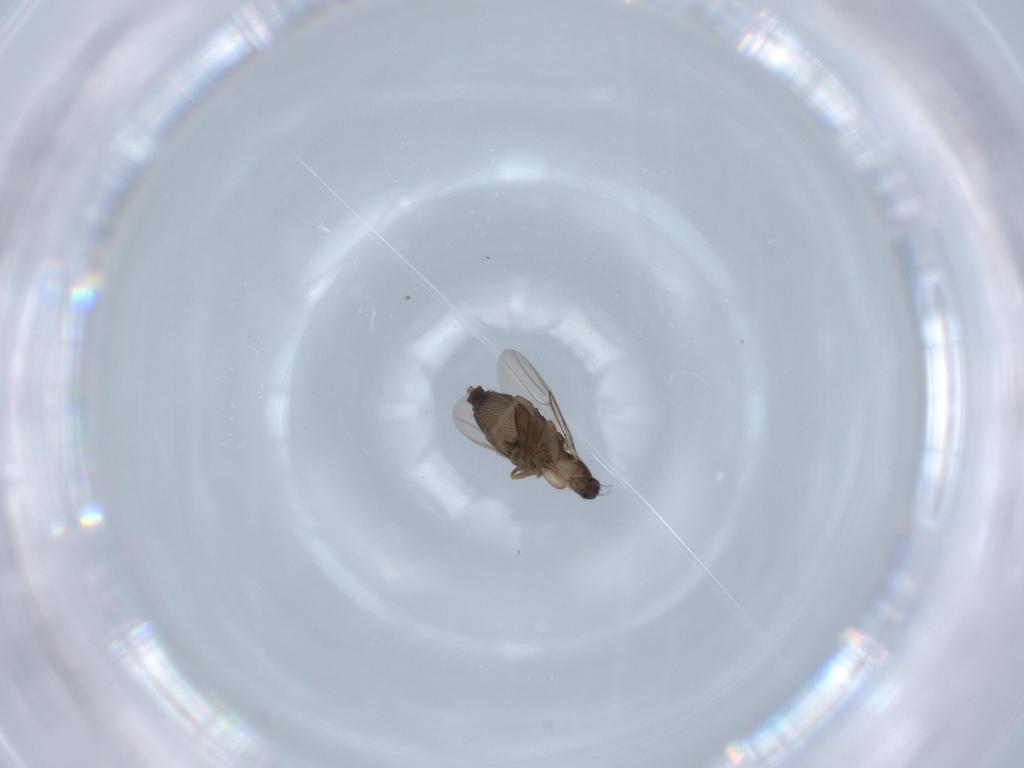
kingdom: Animalia
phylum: Arthropoda
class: Insecta
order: Diptera
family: Phoridae
